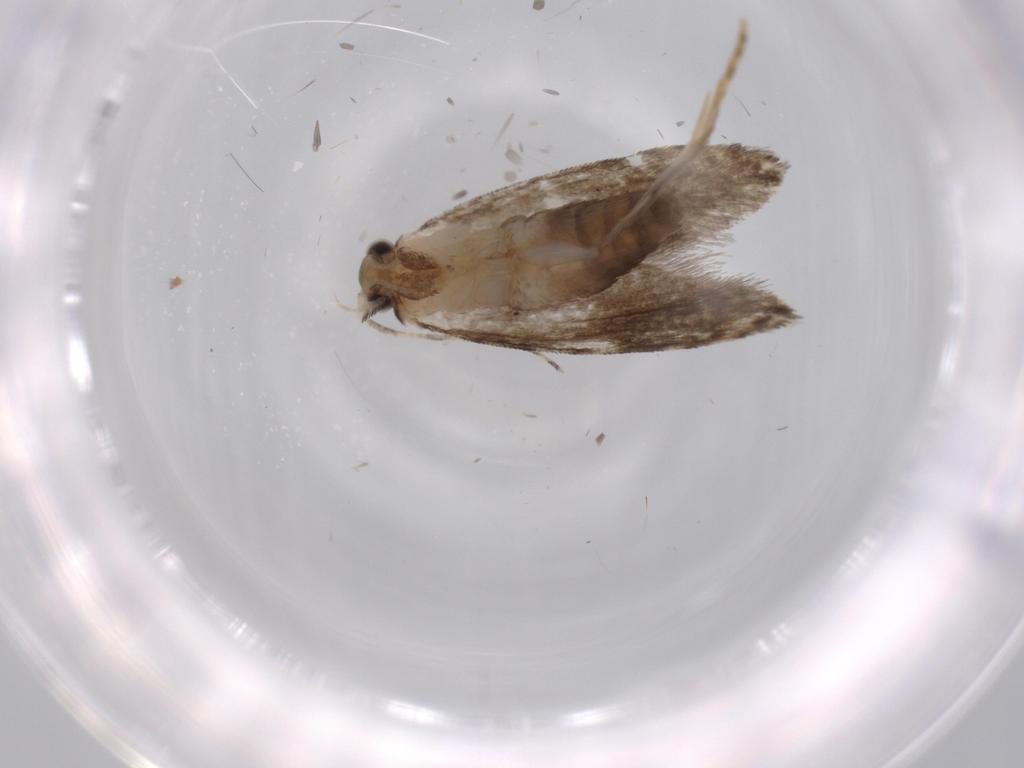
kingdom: Animalia
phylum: Arthropoda
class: Insecta
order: Lepidoptera
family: Tineidae
